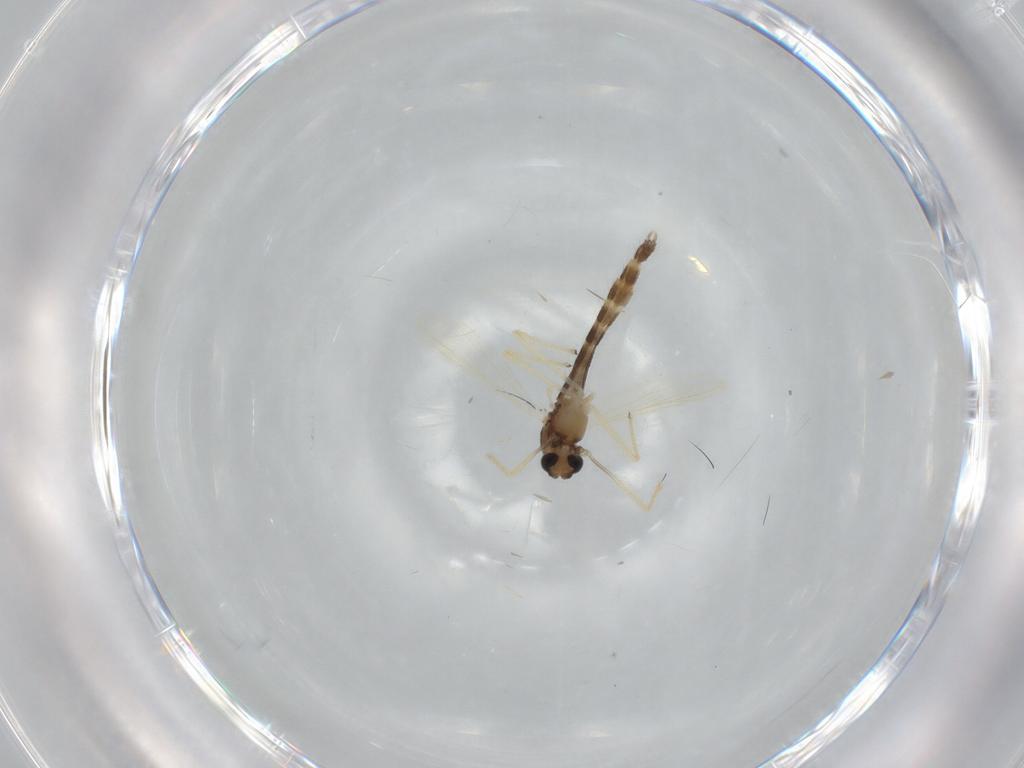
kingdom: Animalia
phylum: Arthropoda
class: Insecta
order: Diptera
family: Chironomidae
